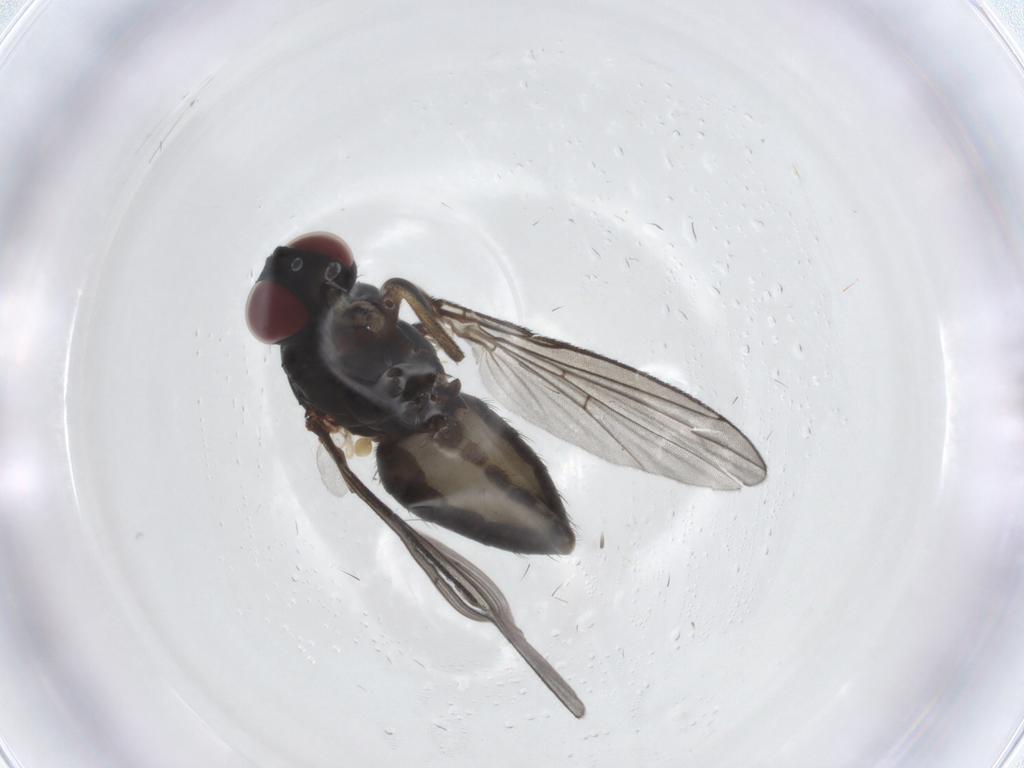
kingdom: Animalia
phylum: Arthropoda
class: Insecta
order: Diptera
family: Muscidae
